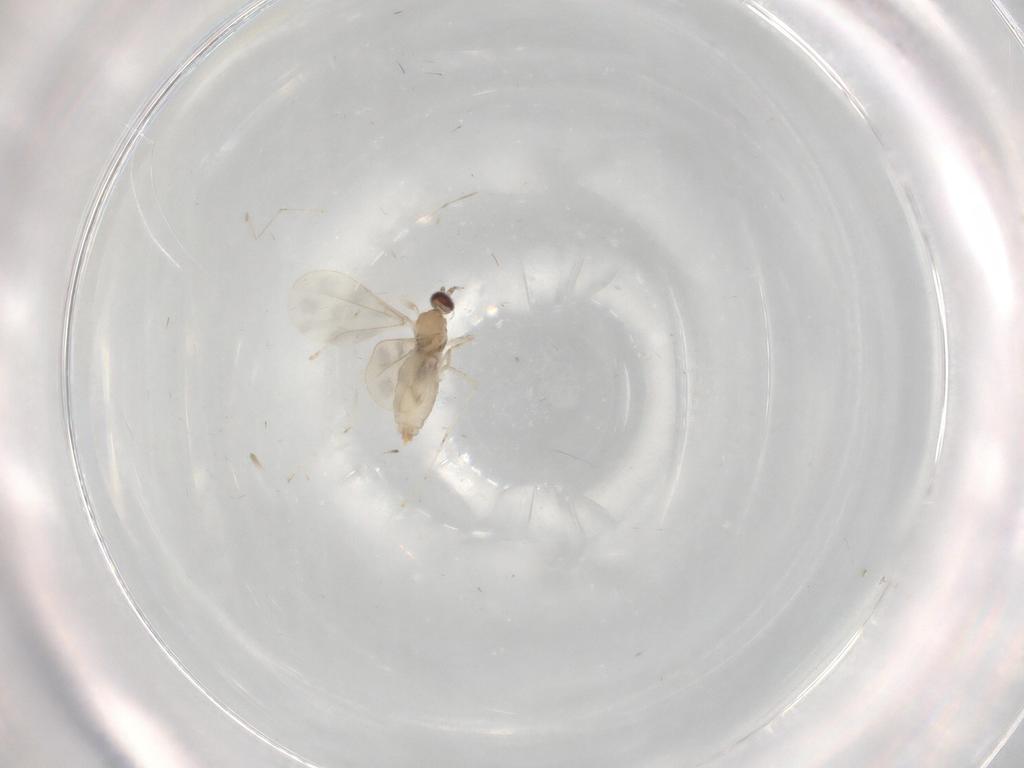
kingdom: Animalia
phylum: Arthropoda
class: Insecta
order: Diptera
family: Cecidomyiidae
